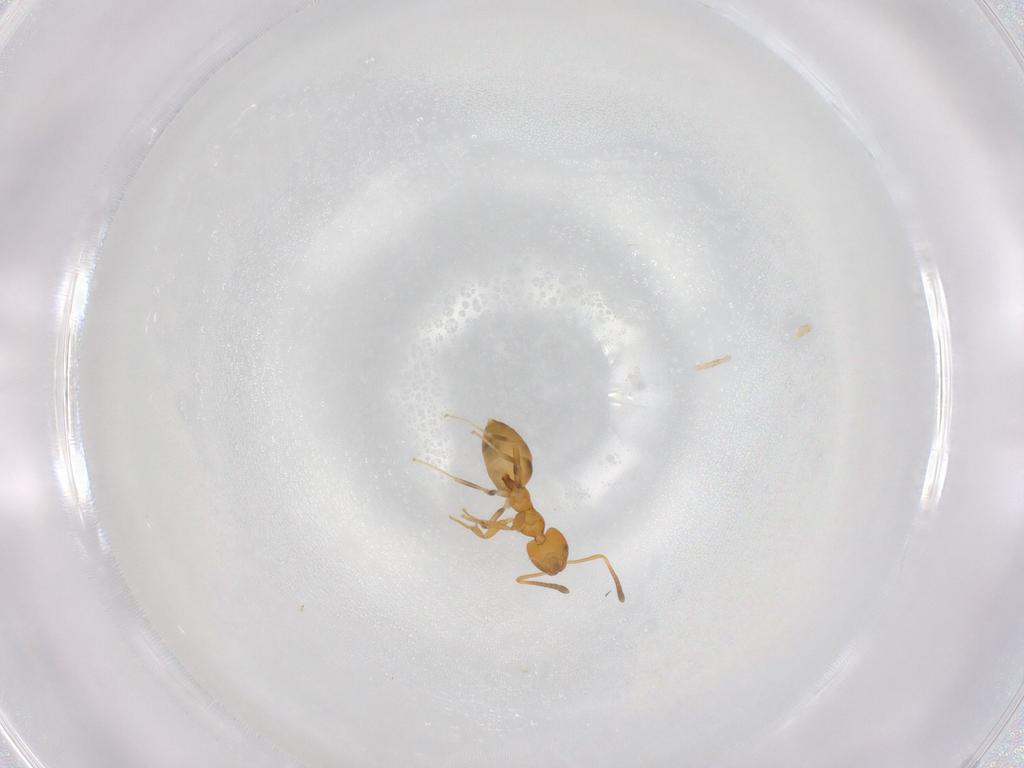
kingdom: Animalia
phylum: Arthropoda
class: Insecta
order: Hymenoptera
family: Formicidae
